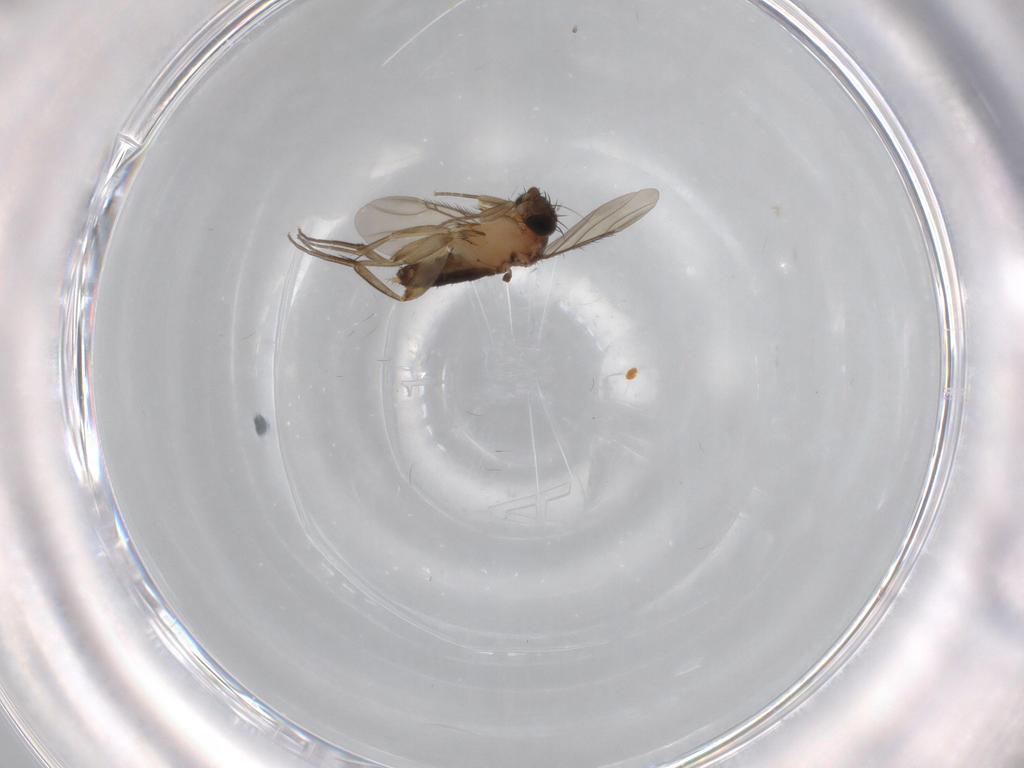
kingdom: Animalia
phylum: Arthropoda
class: Insecta
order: Diptera
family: Phoridae
